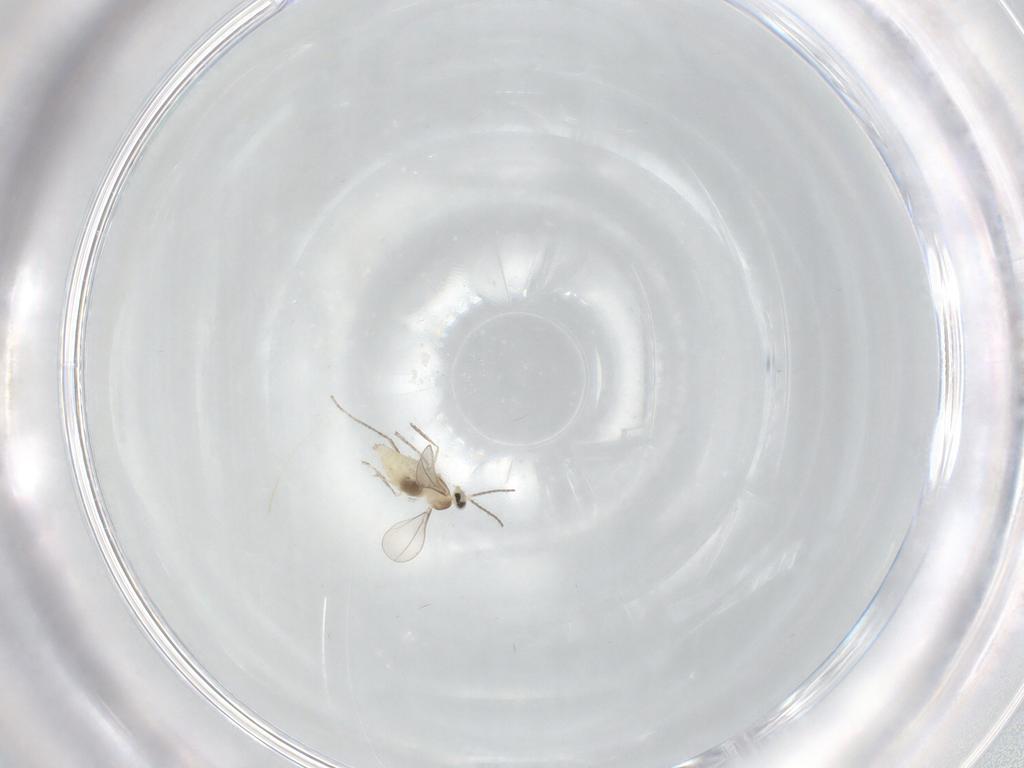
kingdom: Animalia
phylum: Arthropoda
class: Insecta
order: Diptera
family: Cecidomyiidae
